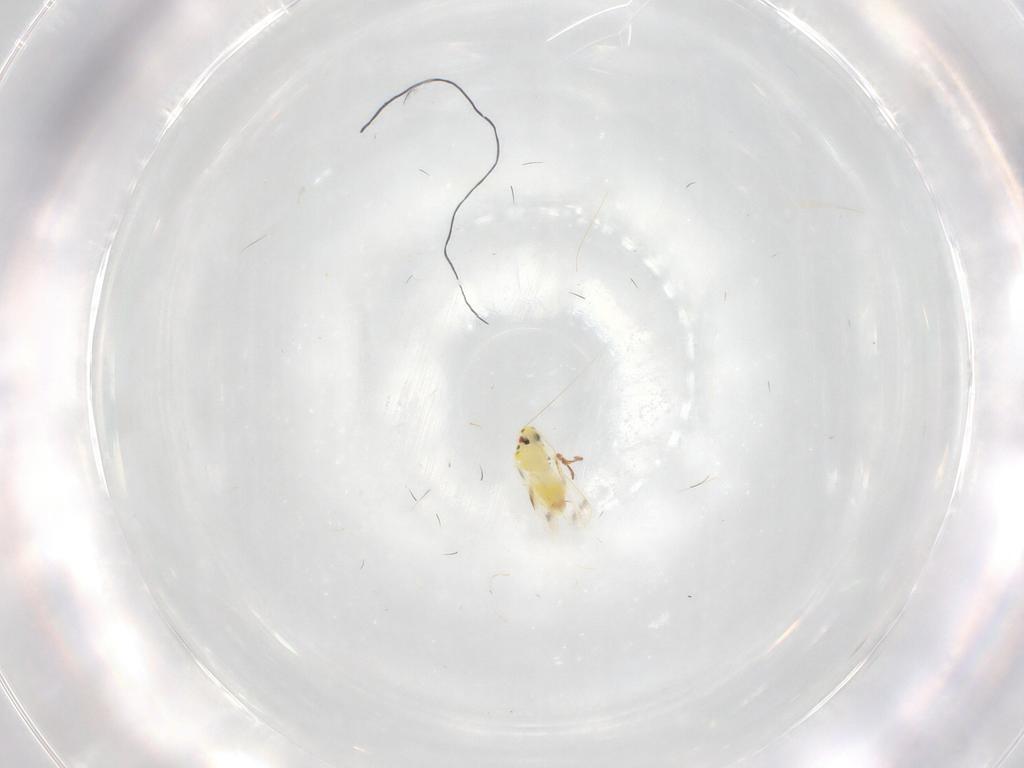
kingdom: Animalia
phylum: Arthropoda
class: Insecta
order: Hemiptera
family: Aleyrodidae
